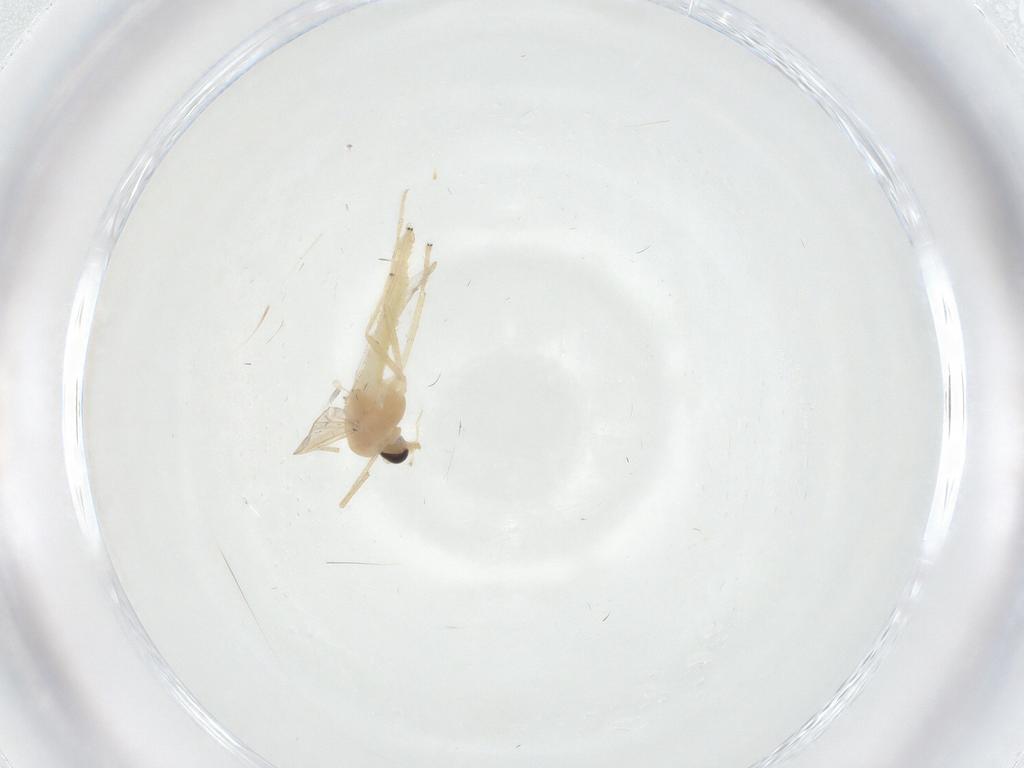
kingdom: Animalia
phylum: Arthropoda
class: Insecta
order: Diptera
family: Chironomidae
